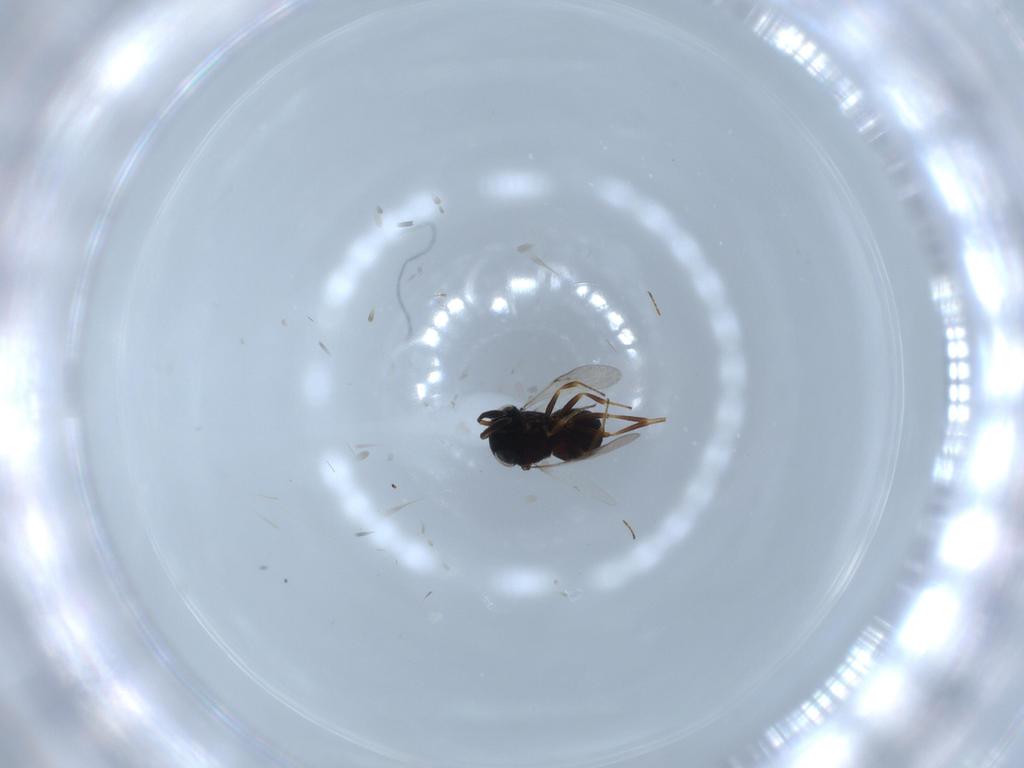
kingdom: Animalia
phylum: Arthropoda
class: Insecta
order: Hymenoptera
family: Scelionidae
